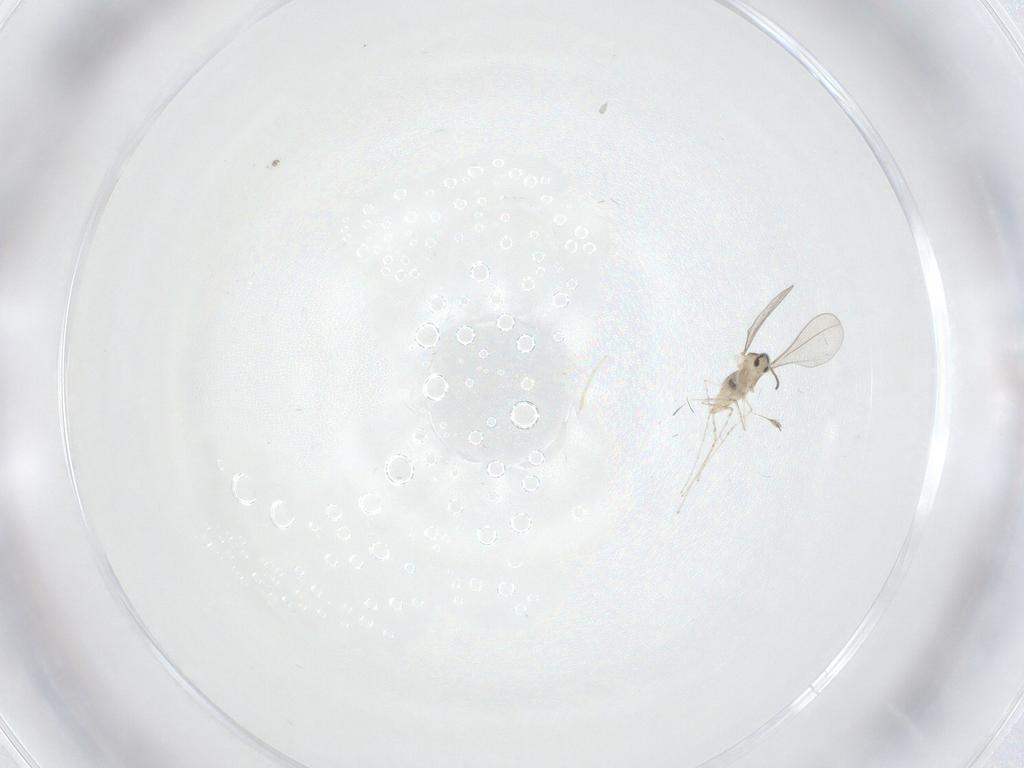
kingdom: Animalia
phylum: Arthropoda
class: Insecta
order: Diptera
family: Cecidomyiidae
